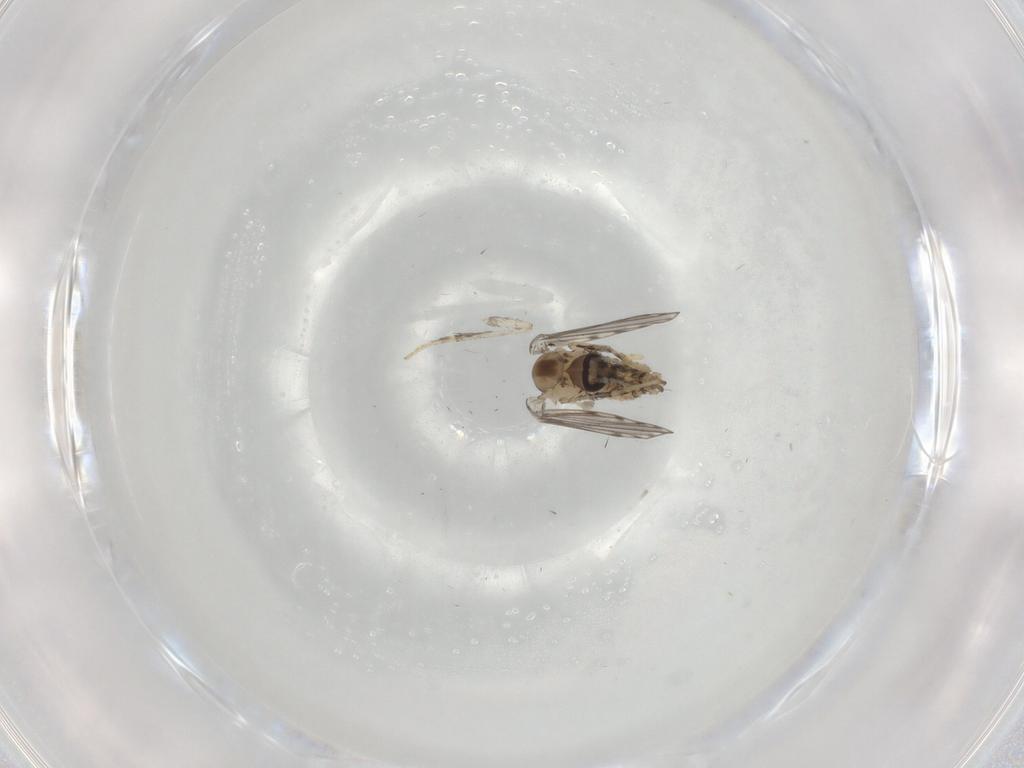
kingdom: Animalia
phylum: Arthropoda
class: Insecta
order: Diptera
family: Psychodidae
